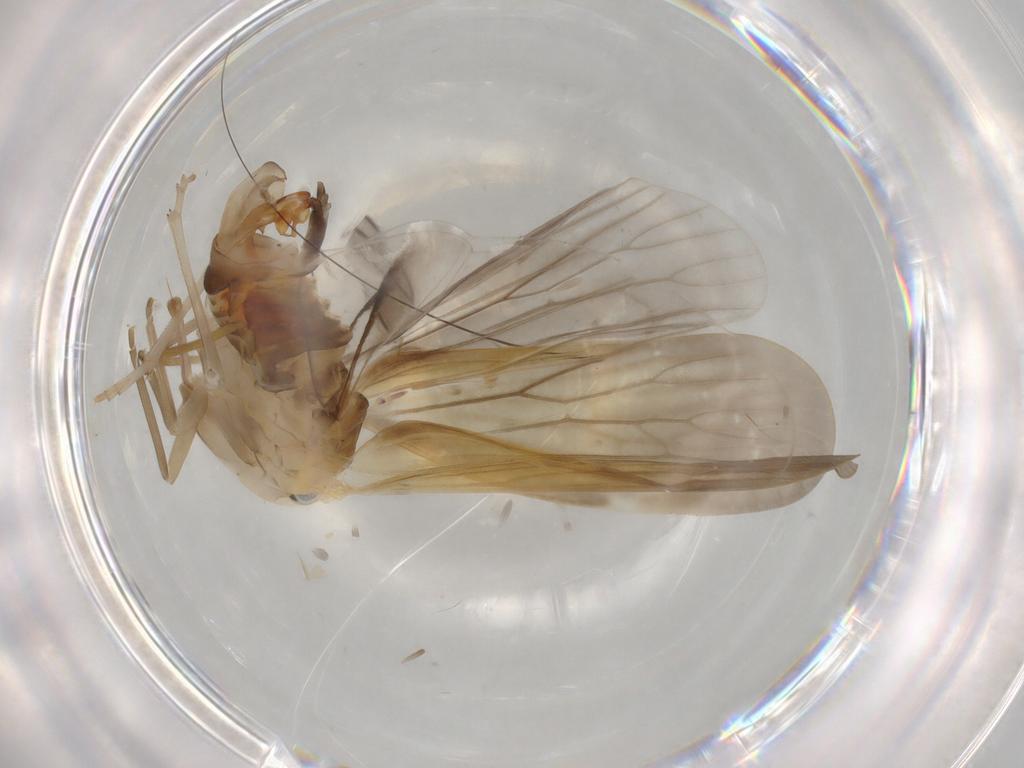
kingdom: Animalia
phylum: Arthropoda
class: Insecta
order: Hemiptera
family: Derbidae
